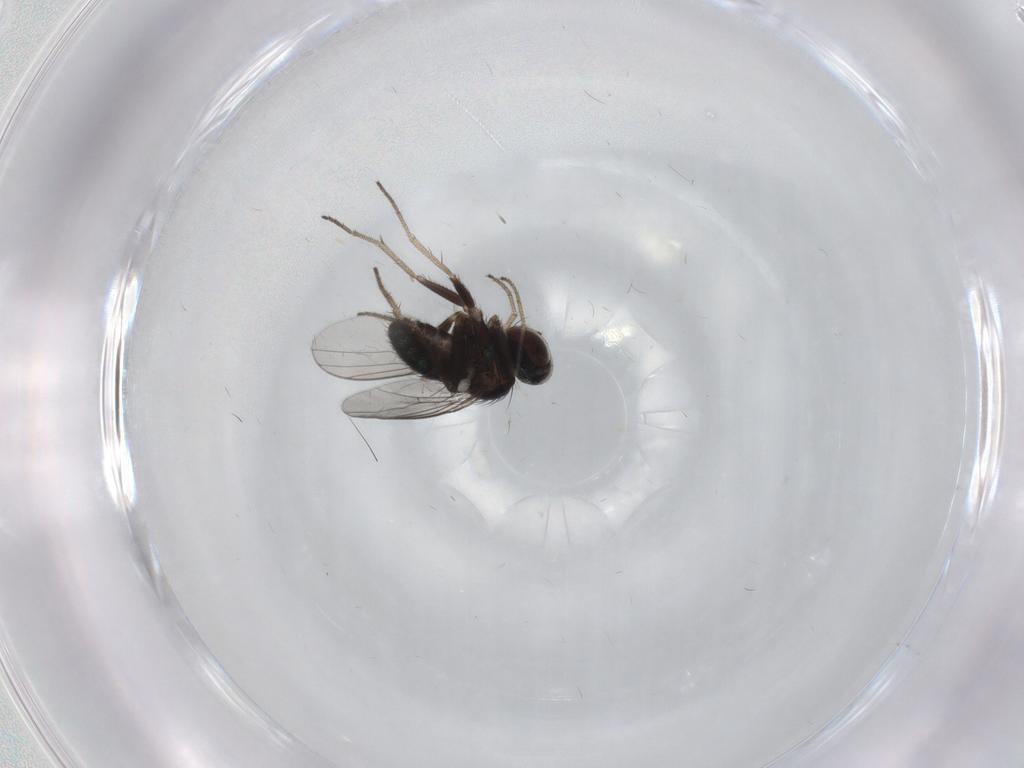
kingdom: Animalia
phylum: Arthropoda
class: Insecta
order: Diptera
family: Dolichopodidae
